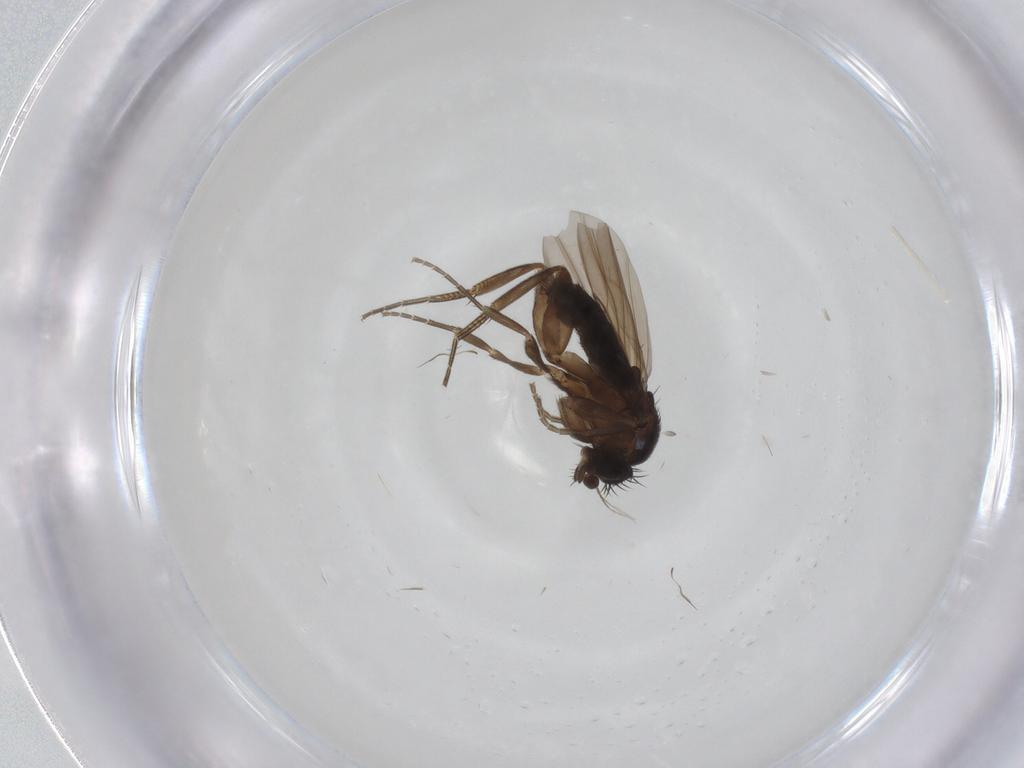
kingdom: Animalia
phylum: Arthropoda
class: Insecta
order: Diptera
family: Phoridae
